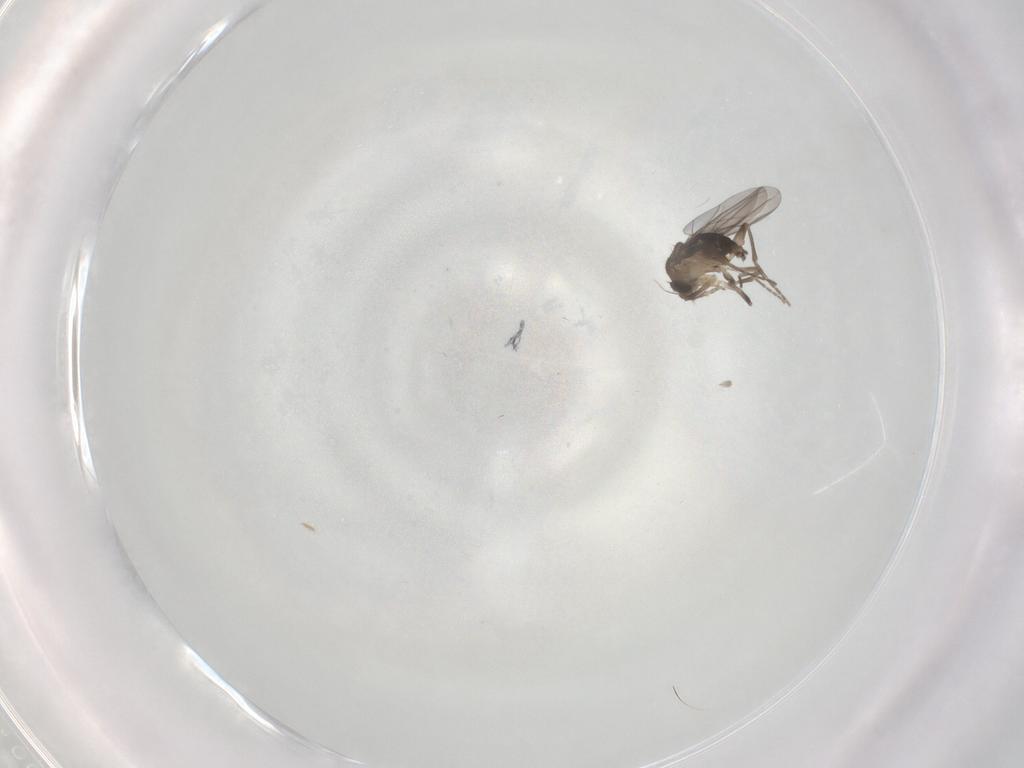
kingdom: Animalia
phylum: Arthropoda
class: Insecta
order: Diptera
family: Phoridae
